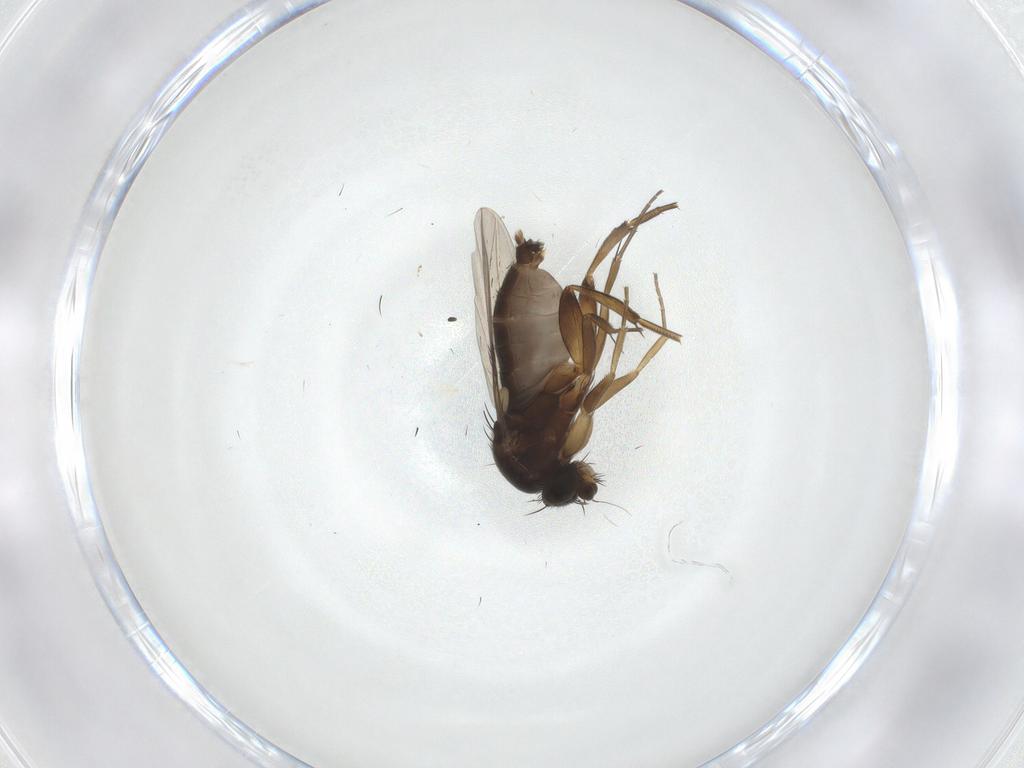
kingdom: Animalia
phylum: Arthropoda
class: Insecta
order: Diptera
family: Phoridae
